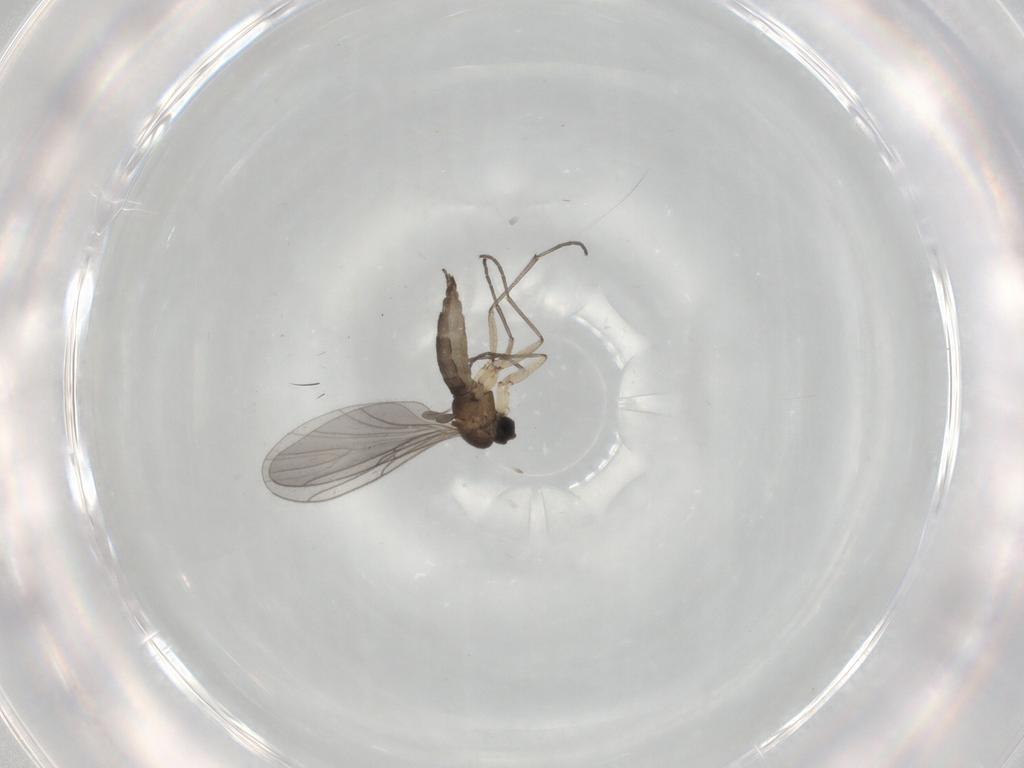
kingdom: Animalia
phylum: Arthropoda
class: Insecta
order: Diptera
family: Sciaridae
